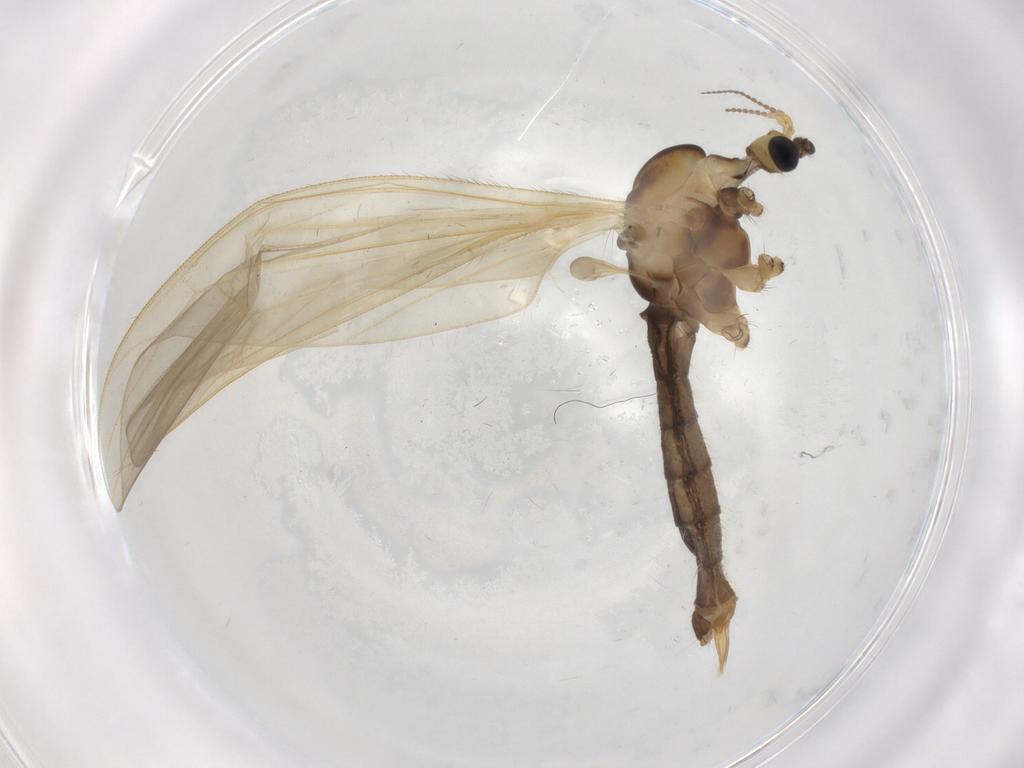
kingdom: Animalia
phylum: Arthropoda
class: Insecta
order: Diptera
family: Sciaridae
